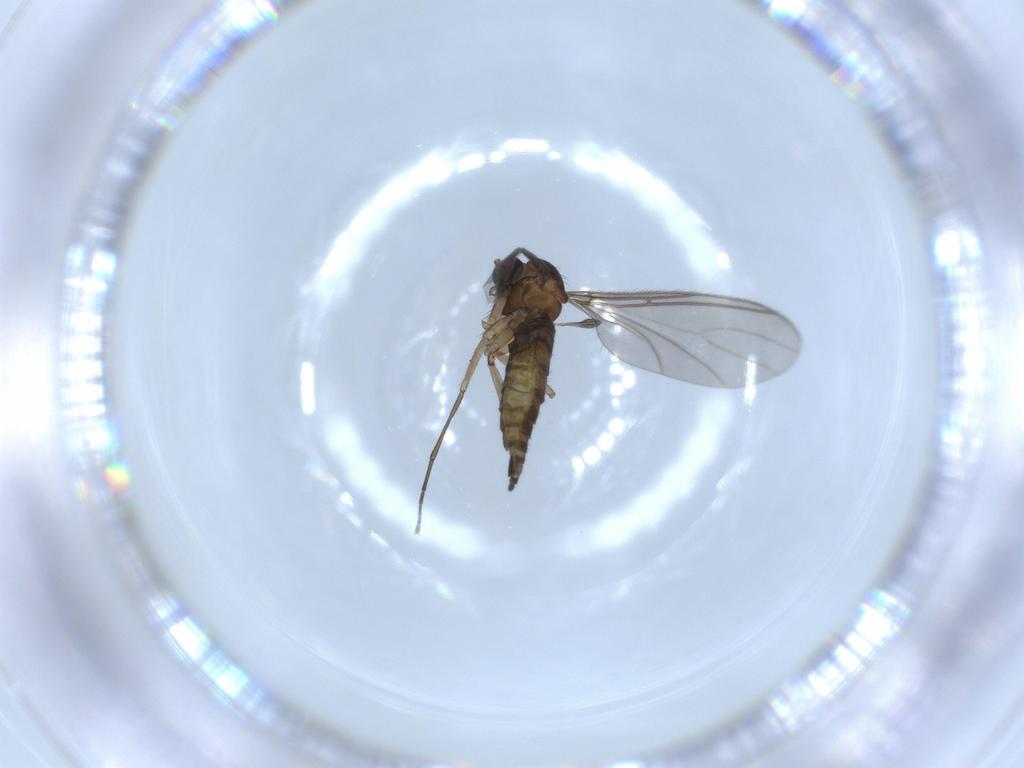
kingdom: Animalia
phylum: Arthropoda
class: Insecta
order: Diptera
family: Sciaridae
